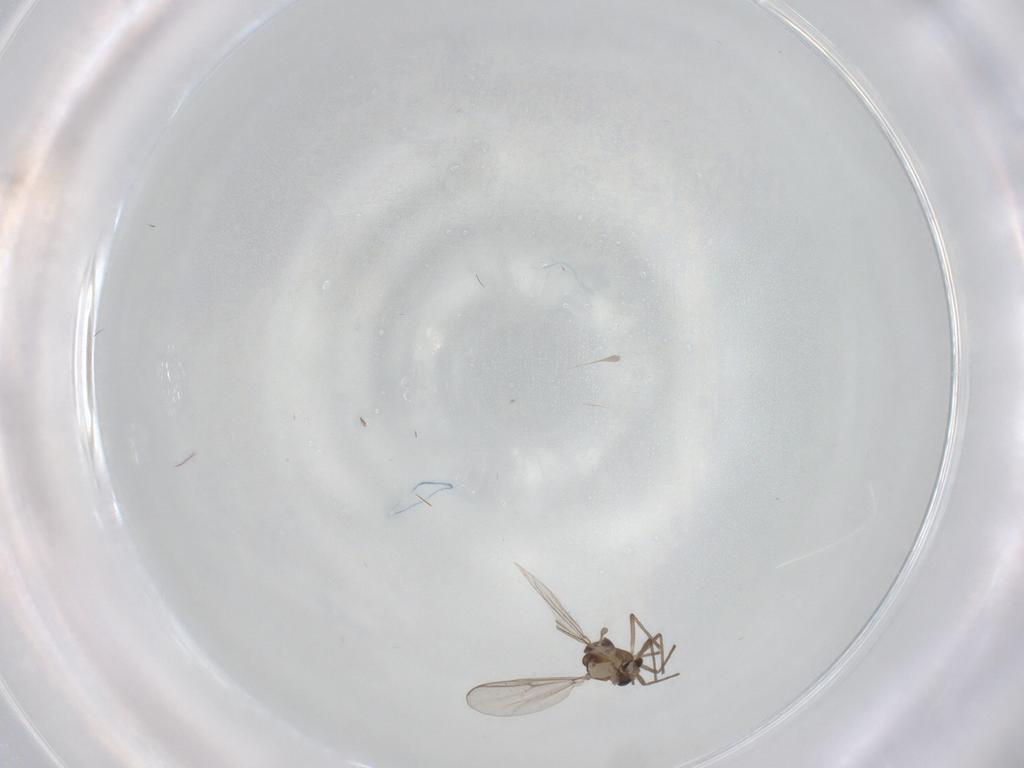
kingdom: Animalia
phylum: Arthropoda
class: Insecta
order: Diptera
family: Chironomidae
